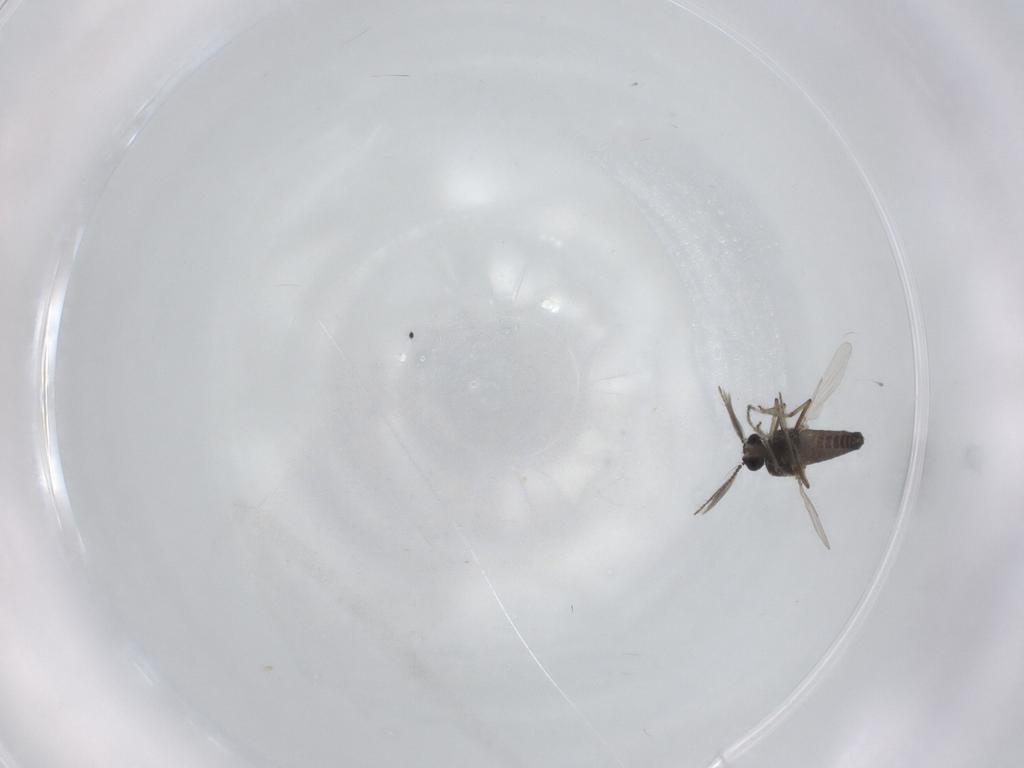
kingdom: Animalia
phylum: Arthropoda
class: Insecta
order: Diptera
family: Ceratopogonidae
